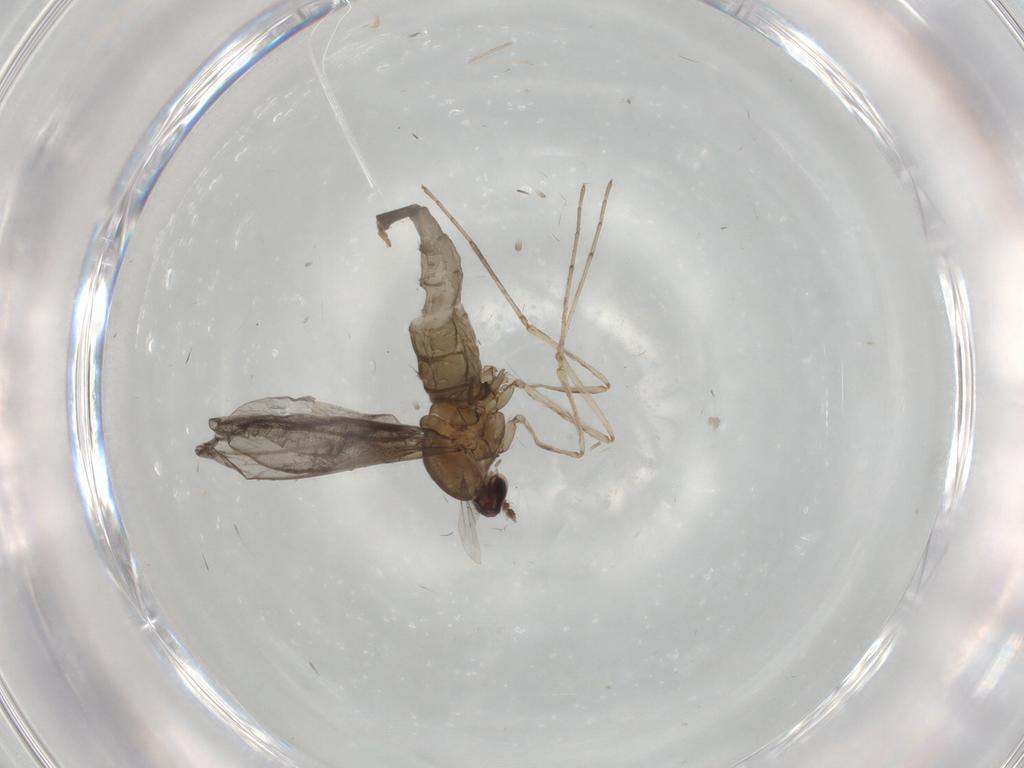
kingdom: Animalia
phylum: Arthropoda
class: Insecta
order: Diptera
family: Cecidomyiidae
